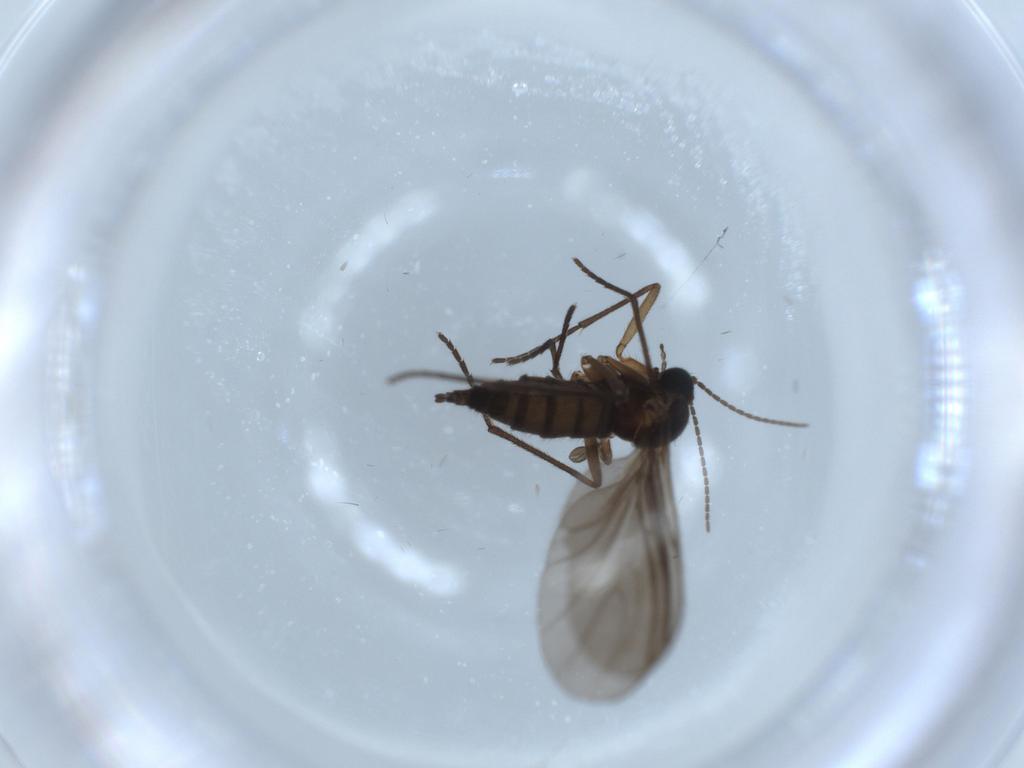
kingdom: Animalia
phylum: Arthropoda
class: Insecta
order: Diptera
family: Sciaridae
